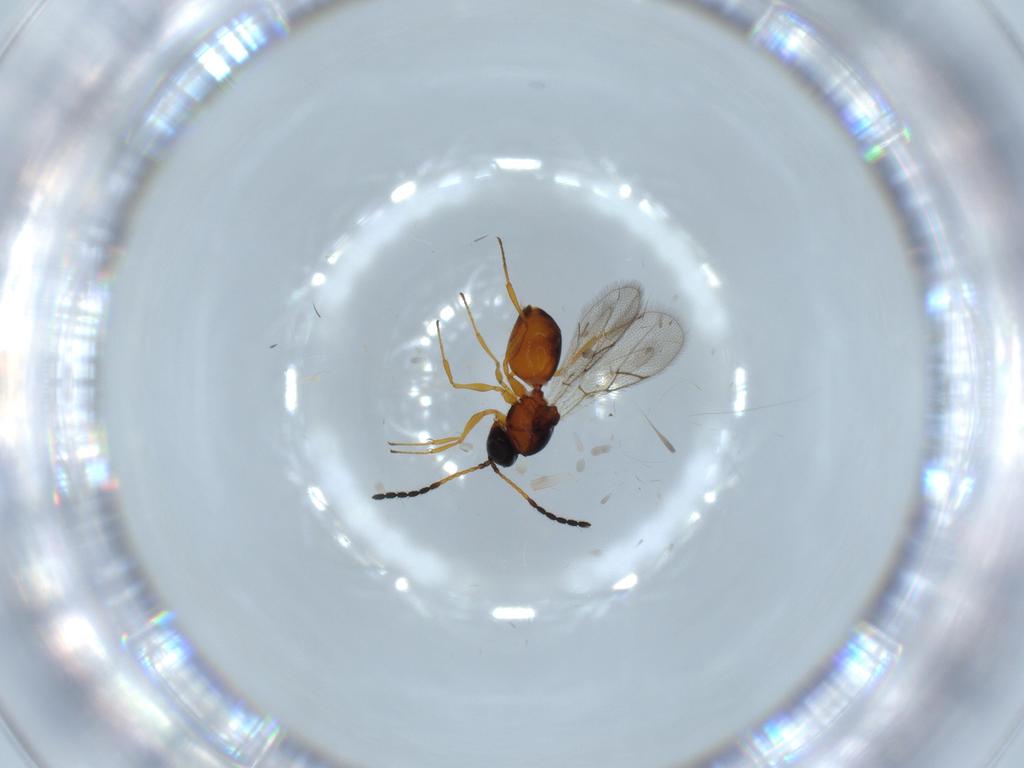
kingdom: Animalia
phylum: Arthropoda
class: Insecta
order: Hymenoptera
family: Figitidae
